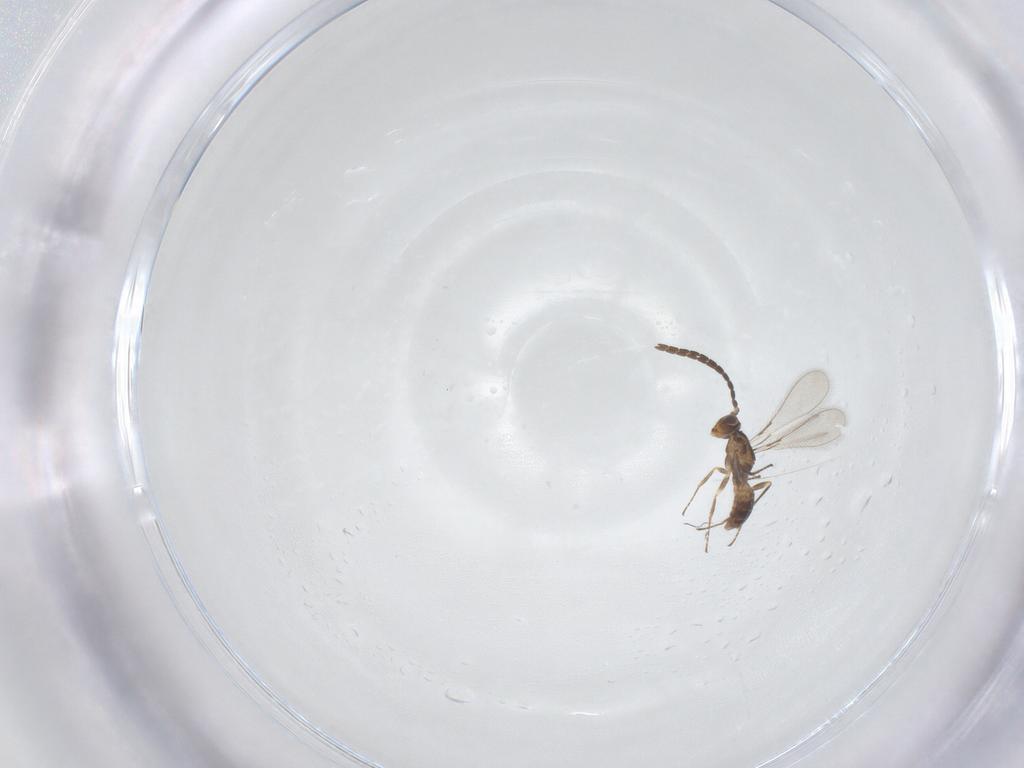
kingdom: Animalia
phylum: Arthropoda
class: Insecta
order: Hymenoptera
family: Mymaridae
